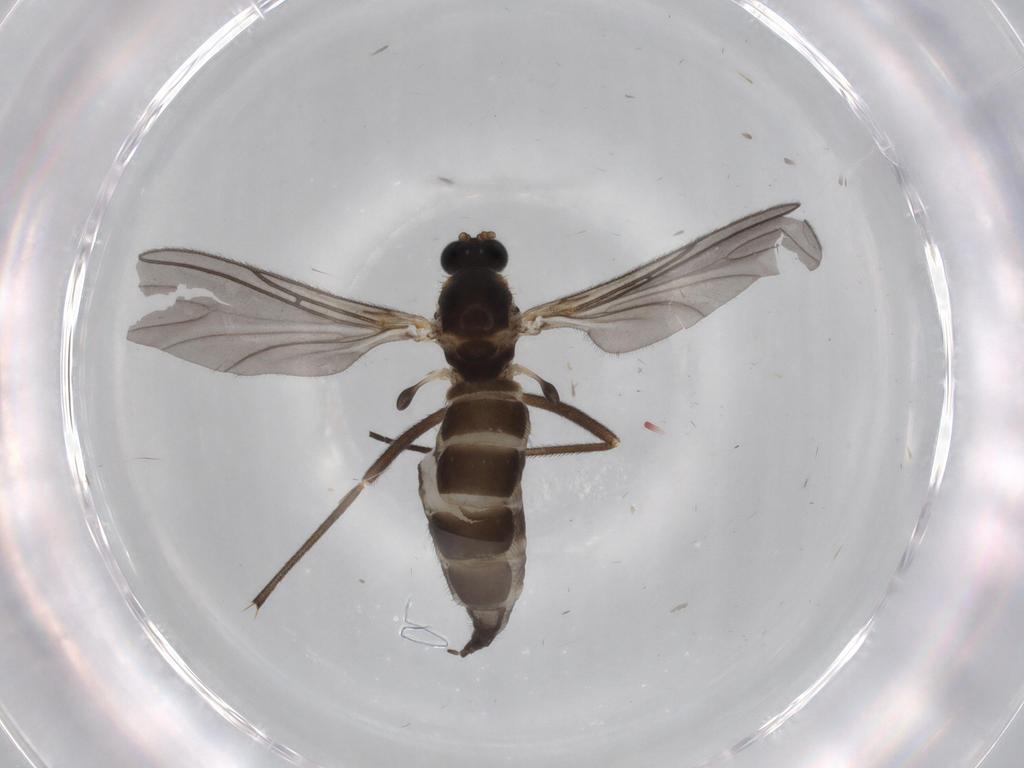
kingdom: Animalia
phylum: Arthropoda
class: Insecta
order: Diptera
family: Sciaridae
